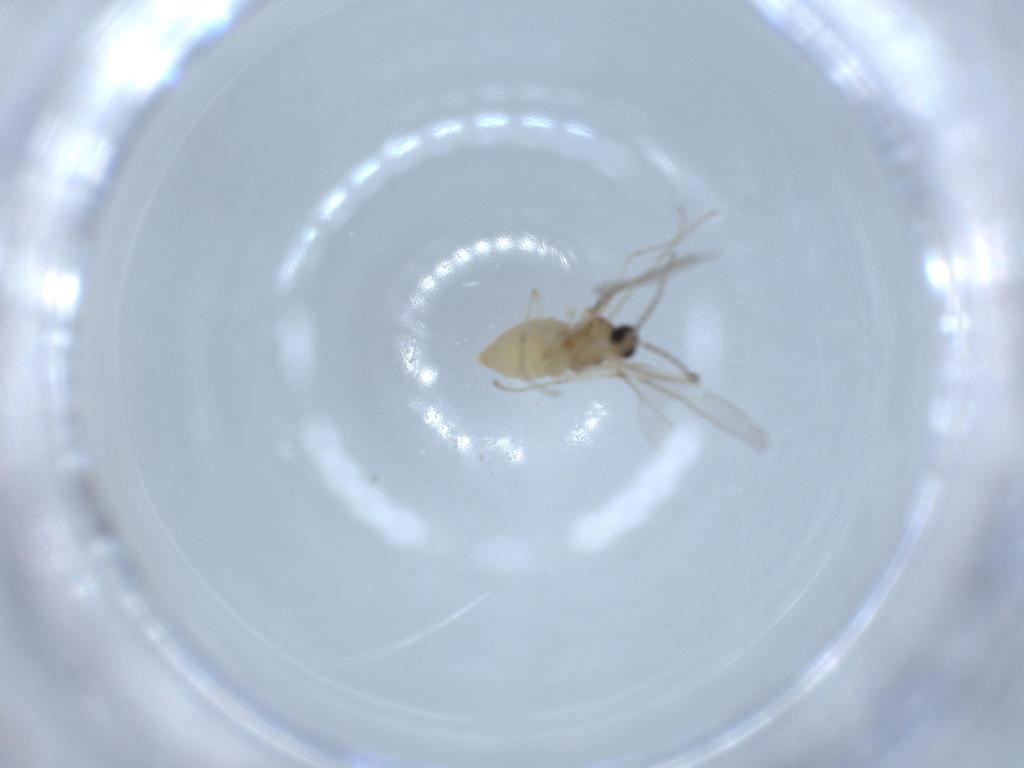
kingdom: Animalia
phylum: Arthropoda
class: Insecta
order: Diptera
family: Cecidomyiidae
